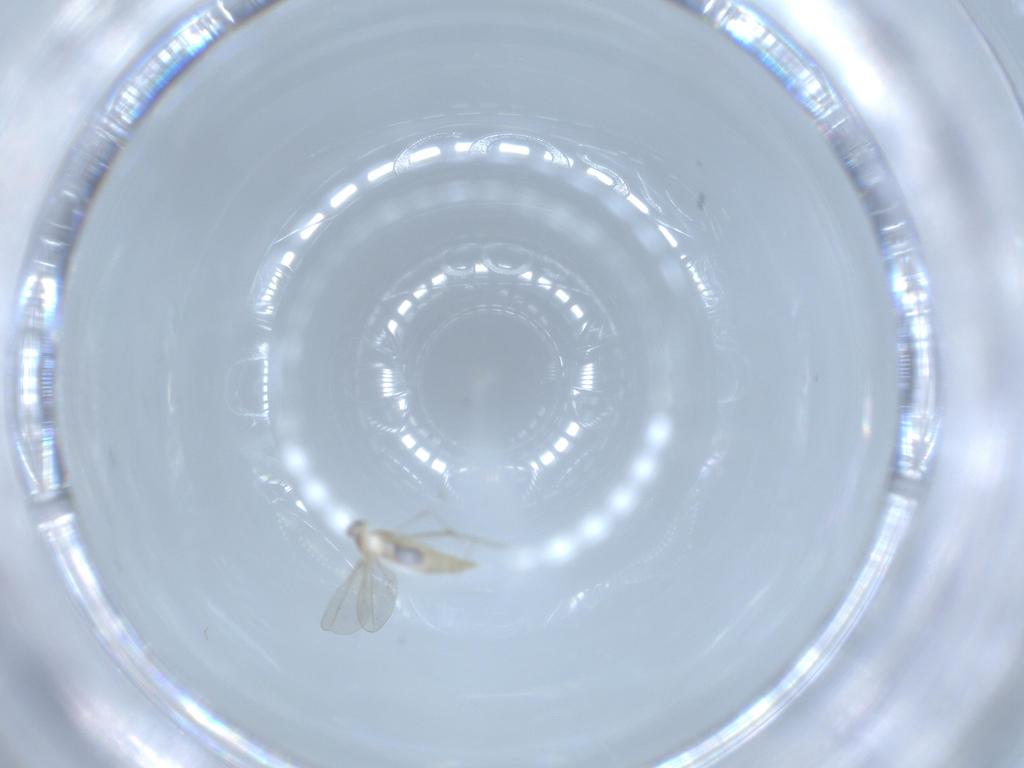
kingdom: Animalia
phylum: Arthropoda
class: Insecta
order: Diptera
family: Cecidomyiidae
